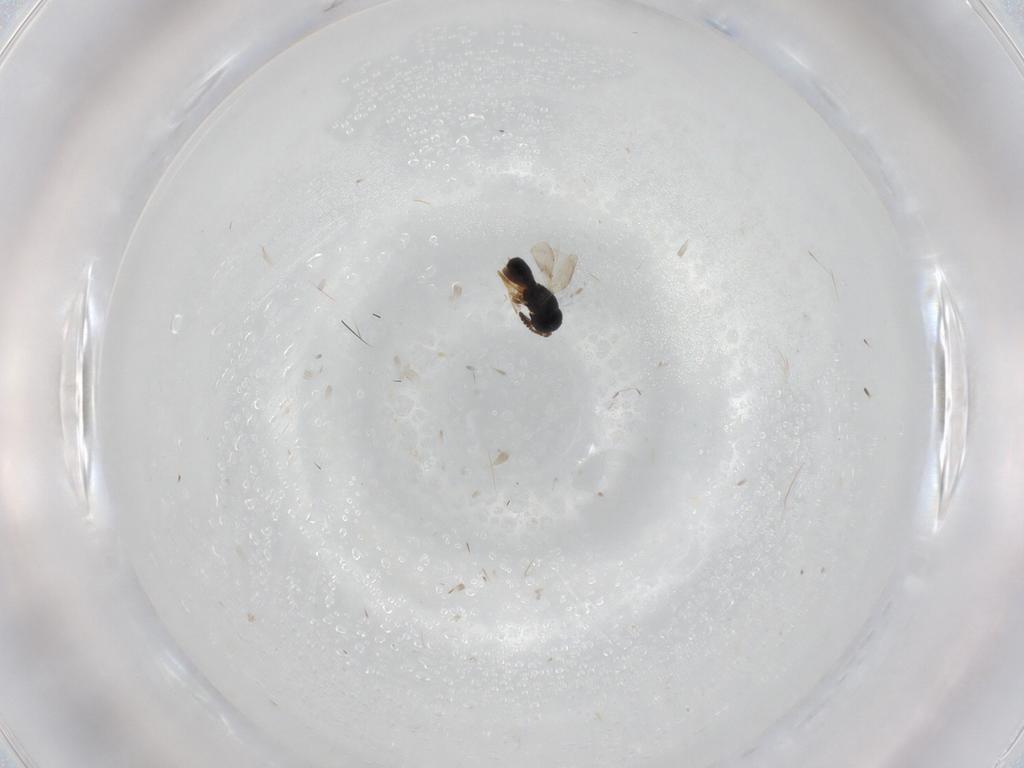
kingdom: Animalia
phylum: Arthropoda
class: Insecta
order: Hymenoptera
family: Scelionidae
